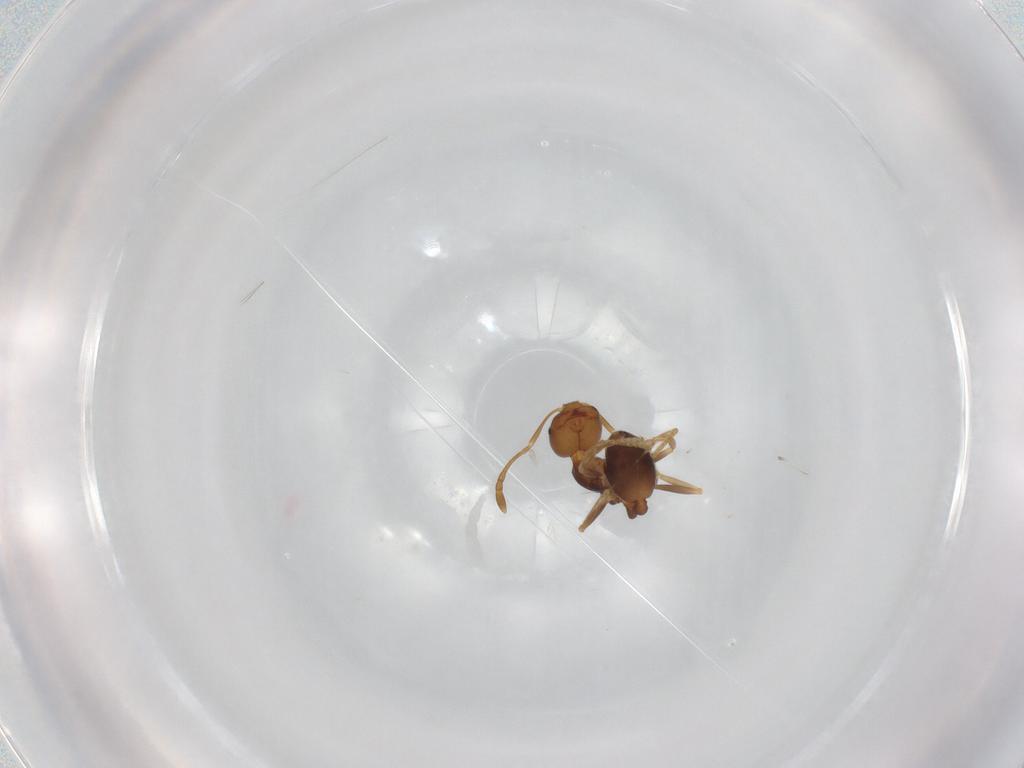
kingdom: Animalia
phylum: Arthropoda
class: Insecta
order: Hymenoptera
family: Formicidae
